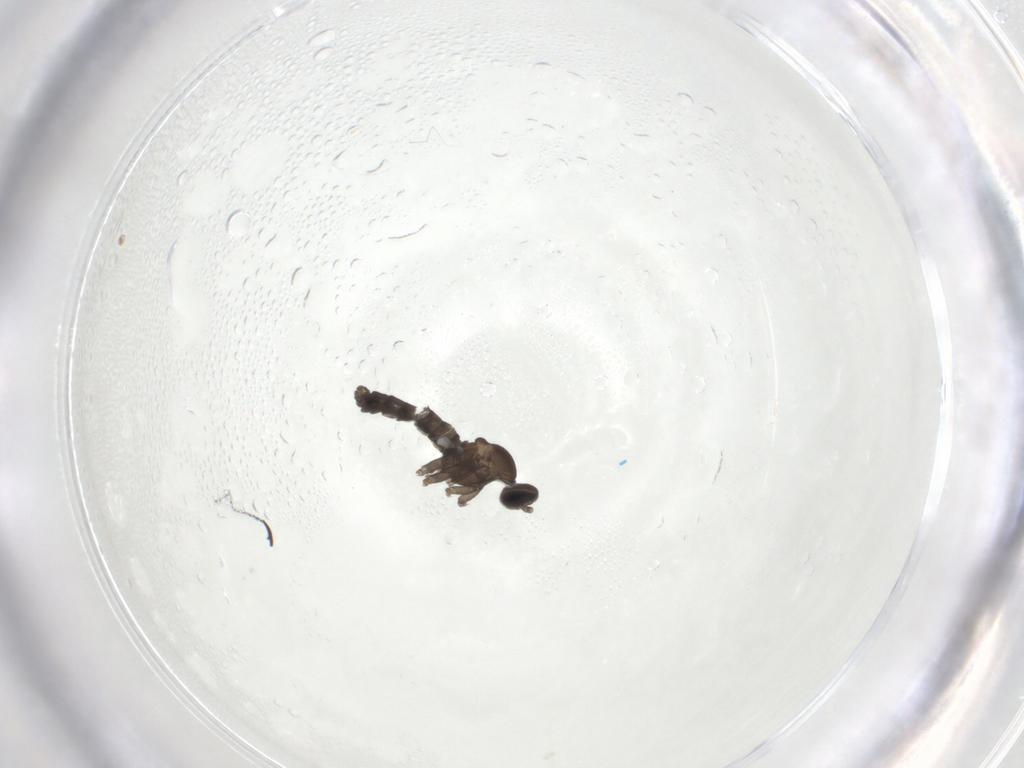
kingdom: Animalia
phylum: Arthropoda
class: Insecta
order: Diptera
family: Cecidomyiidae
